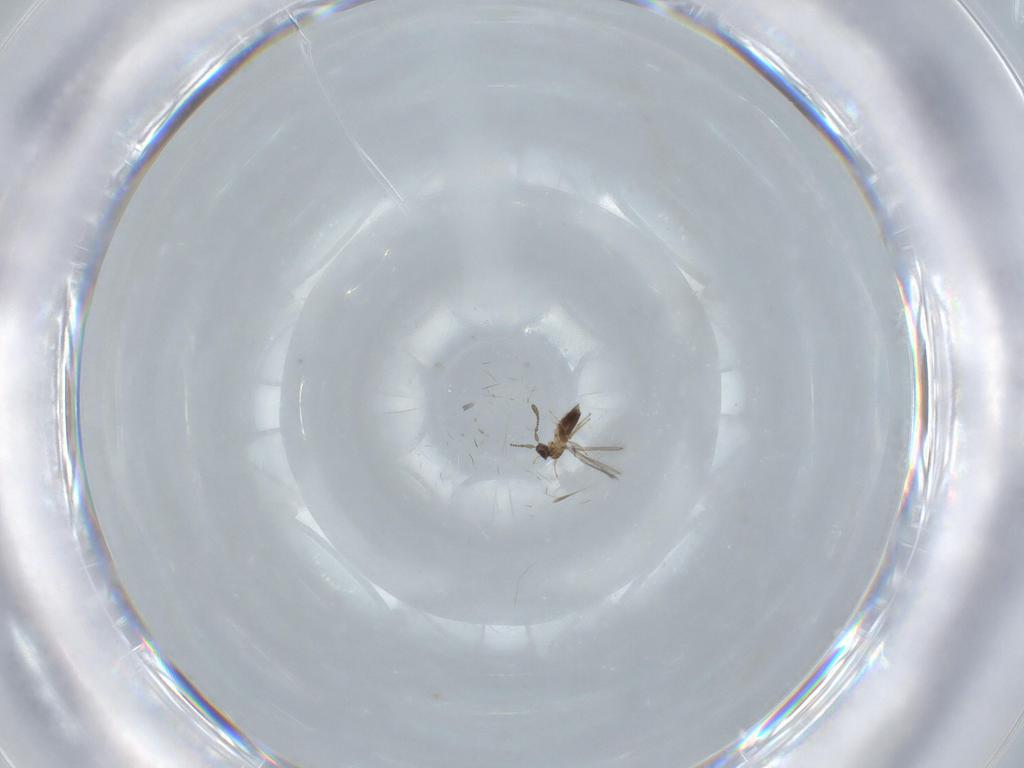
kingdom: Animalia
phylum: Arthropoda
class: Insecta
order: Hymenoptera
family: Mymaridae
